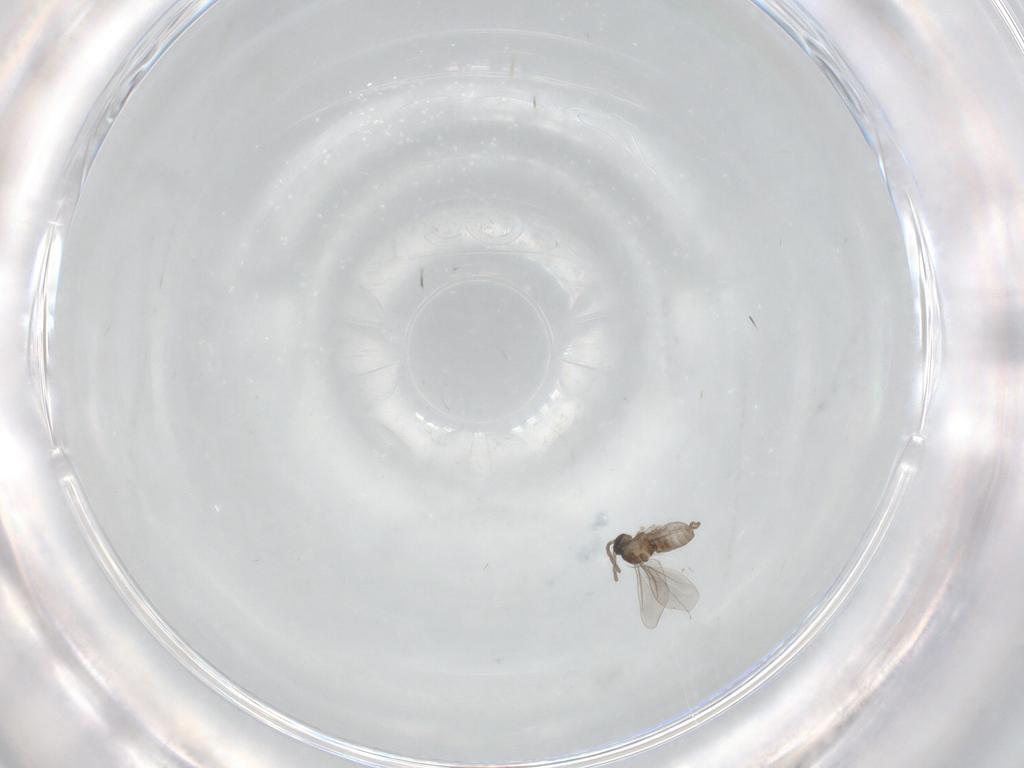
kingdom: Animalia
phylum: Arthropoda
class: Insecta
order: Diptera
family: Cecidomyiidae
